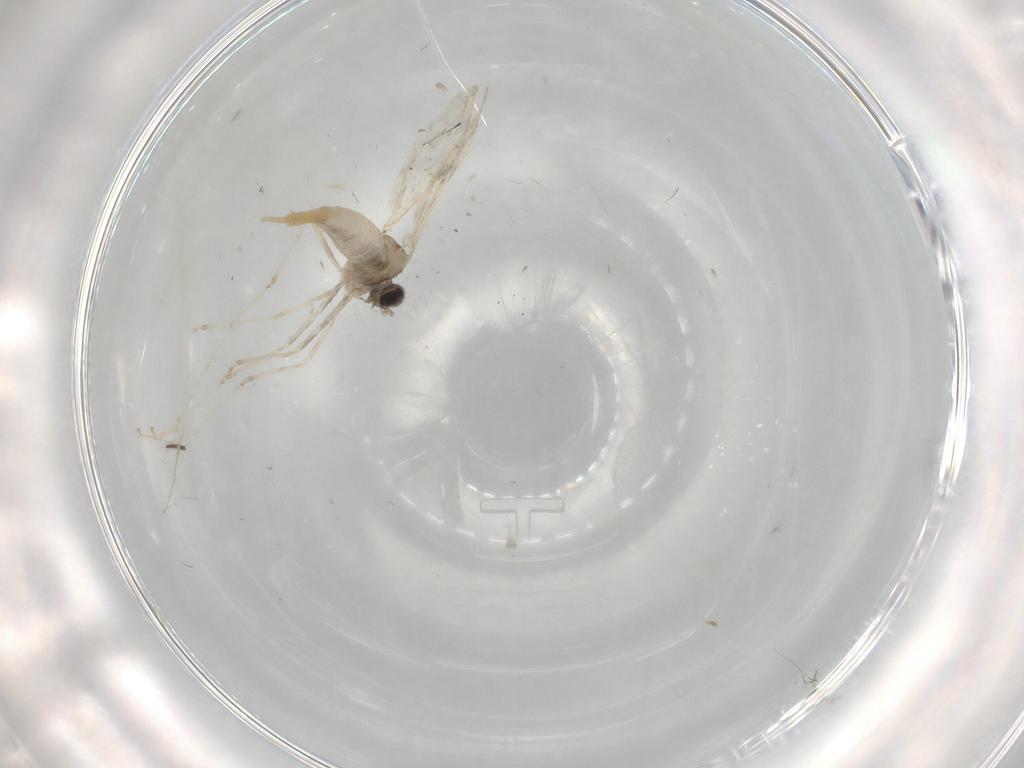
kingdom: Animalia
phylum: Arthropoda
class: Insecta
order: Diptera
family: Cecidomyiidae
